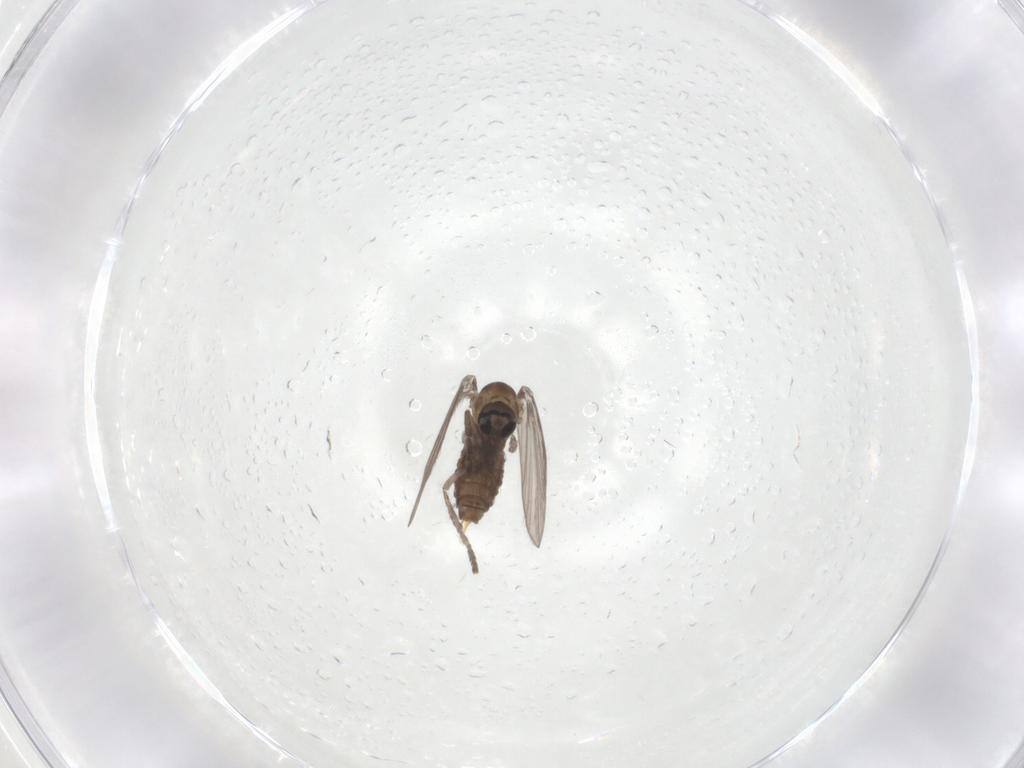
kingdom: Animalia
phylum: Arthropoda
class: Insecta
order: Diptera
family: Psychodidae
